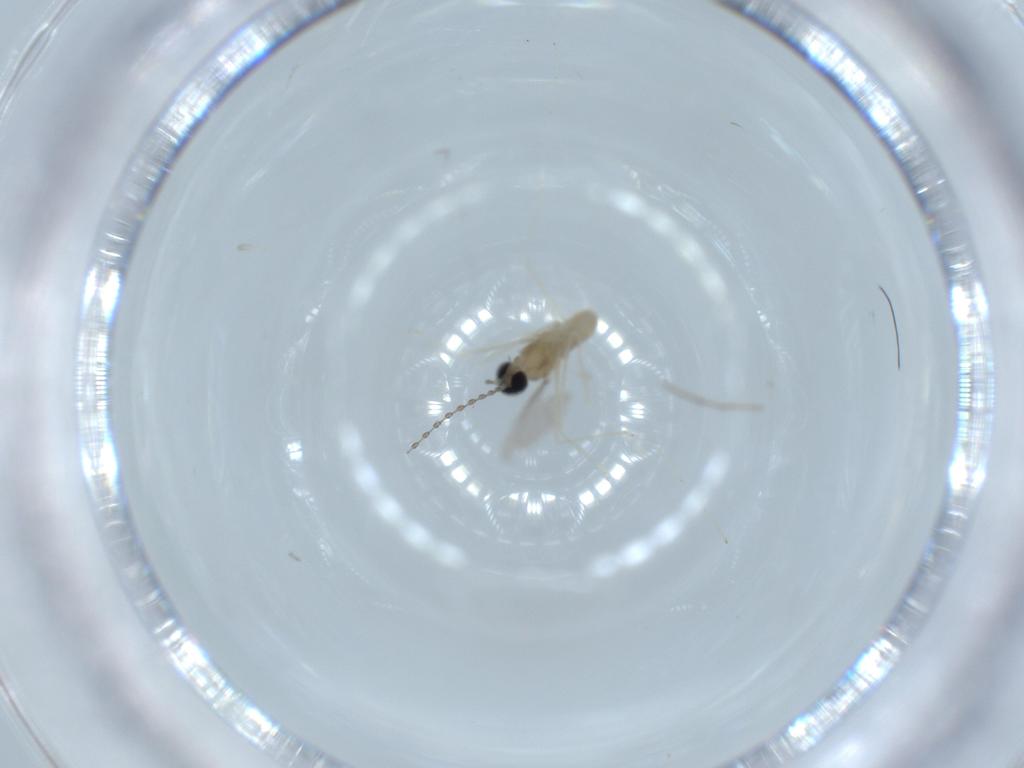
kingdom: Animalia
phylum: Arthropoda
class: Insecta
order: Diptera
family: Cecidomyiidae
